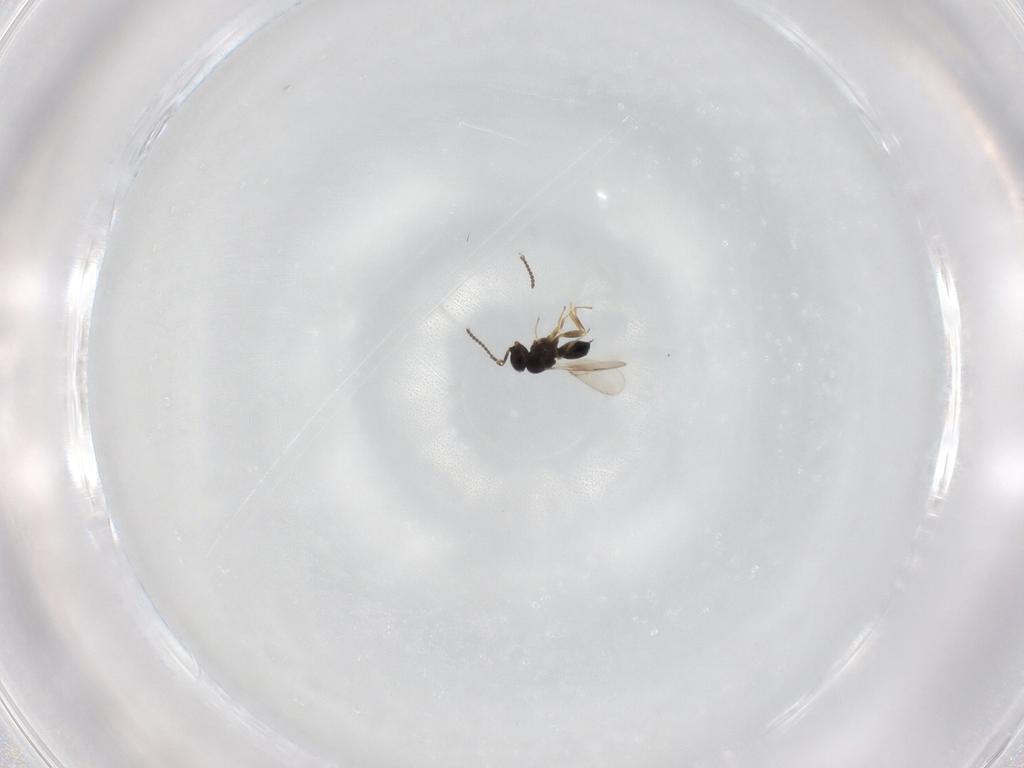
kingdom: Animalia
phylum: Arthropoda
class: Insecta
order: Hymenoptera
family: Scelionidae
